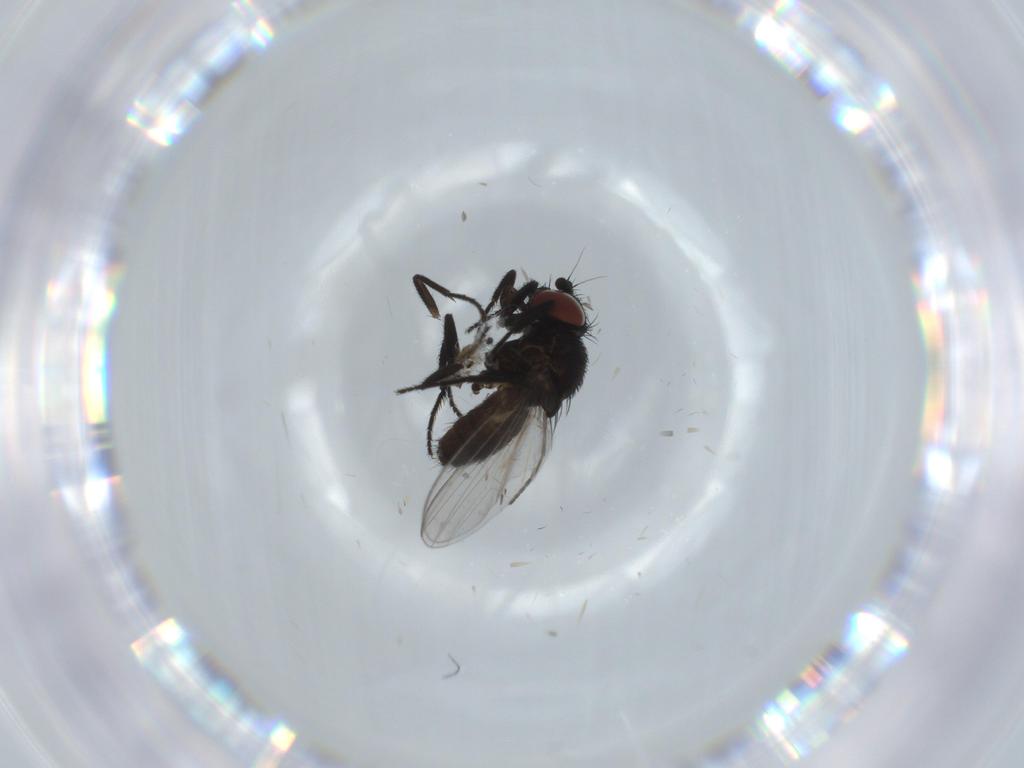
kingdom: Animalia
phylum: Arthropoda
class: Insecta
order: Diptera
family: Milichiidae
